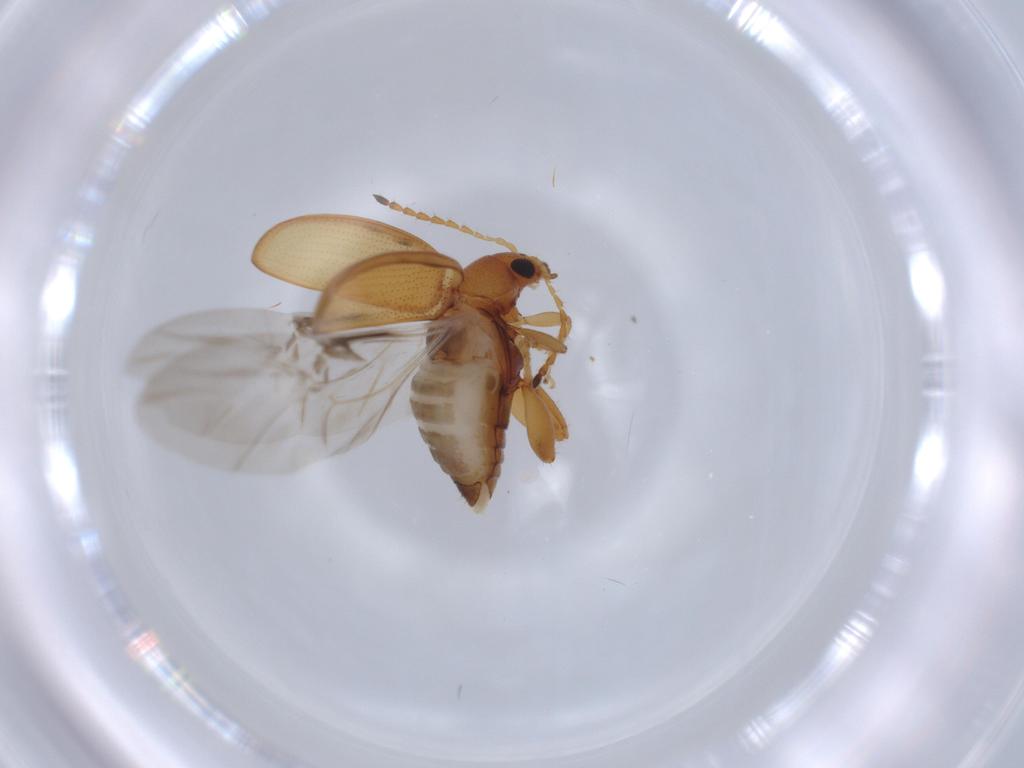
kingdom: Animalia
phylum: Arthropoda
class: Insecta
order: Coleoptera
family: Chrysomelidae
